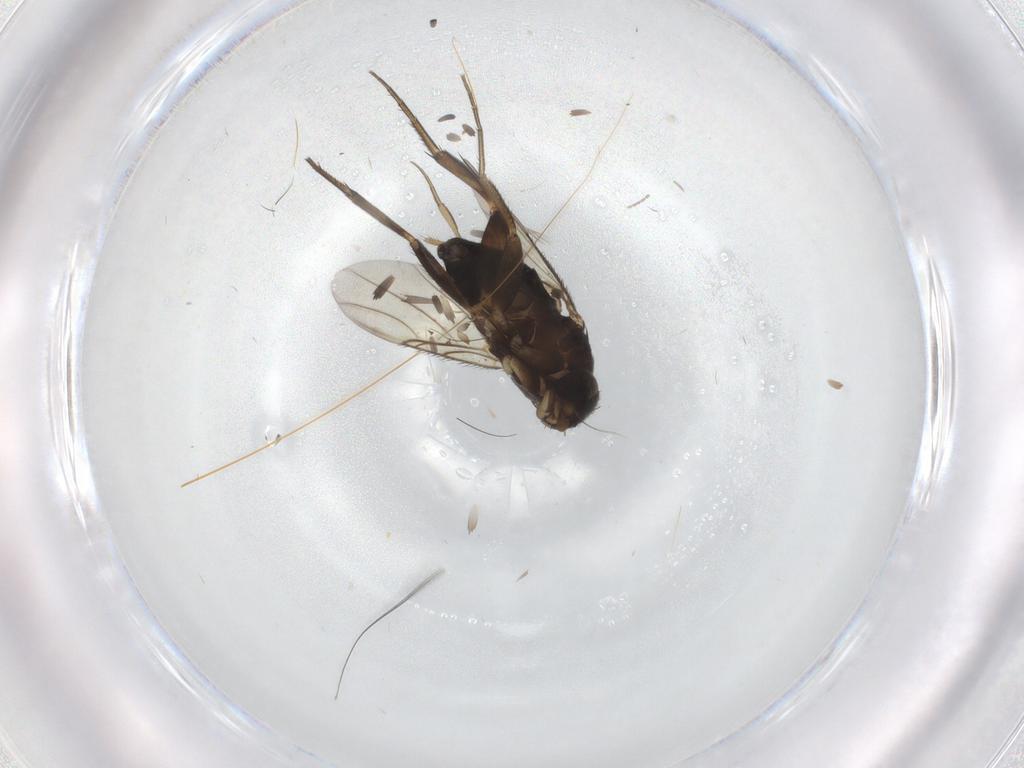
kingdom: Animalia
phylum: Arthropoda
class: Insecta
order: Diptera
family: Phoridae
